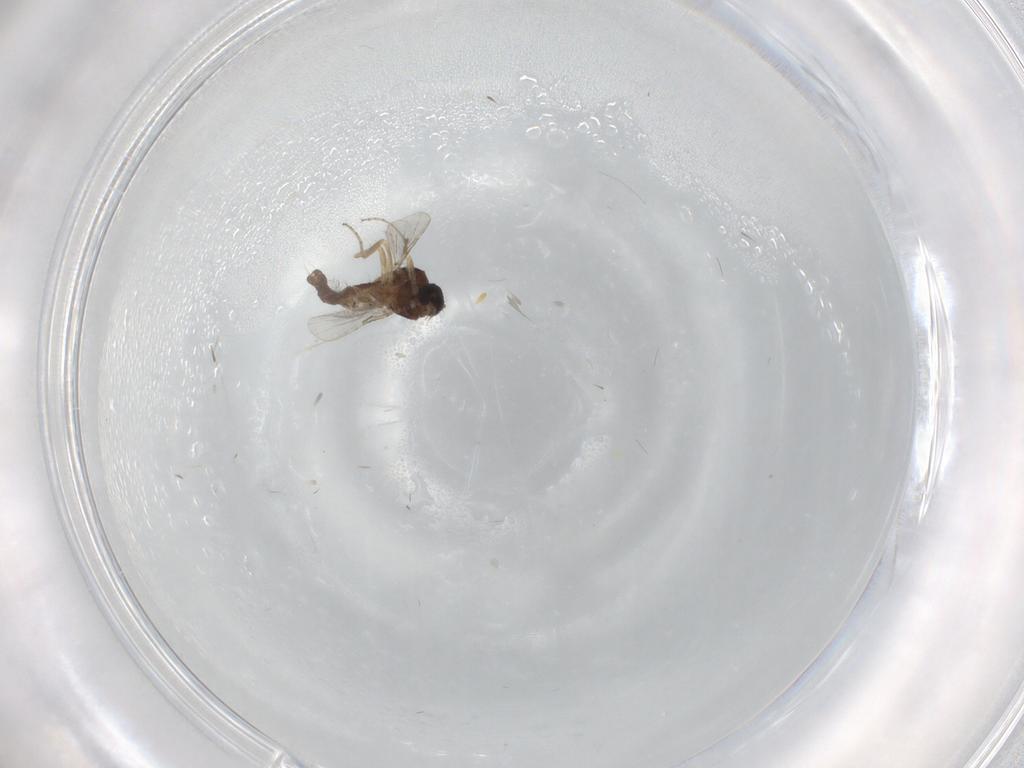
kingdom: Animalia
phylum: Arthropoda
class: Insecta
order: Diptera
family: Ceratopogonidae
